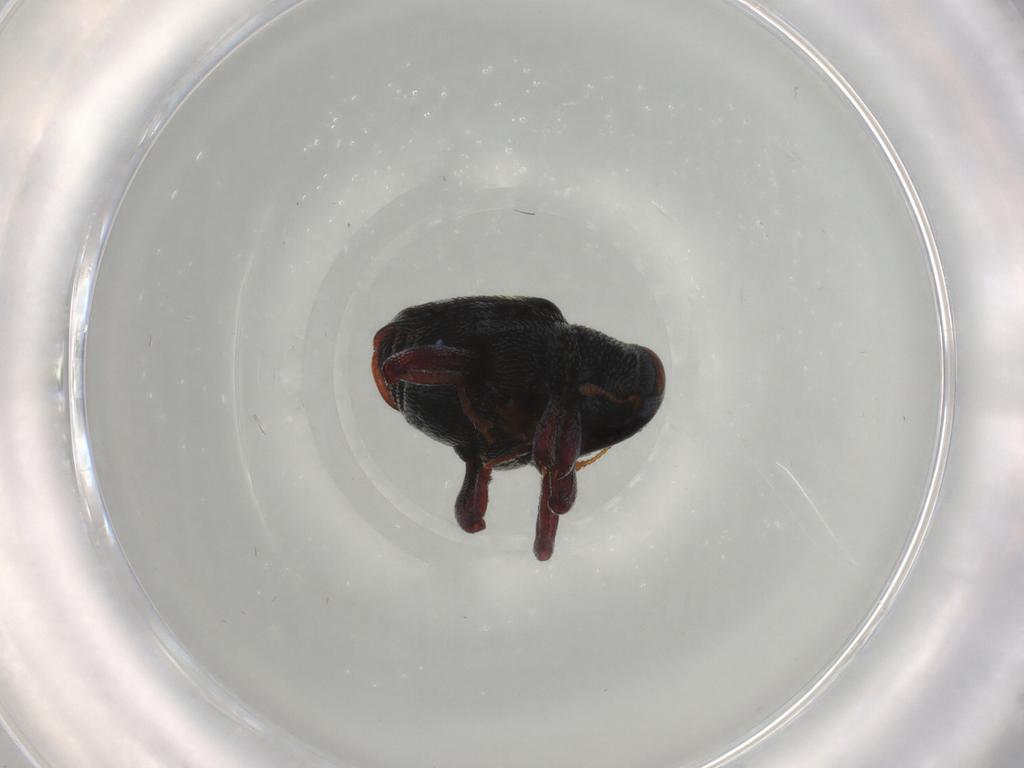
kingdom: Animalia
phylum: Arthropoda
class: Insecta
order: Coleoptera
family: Curculionidae
